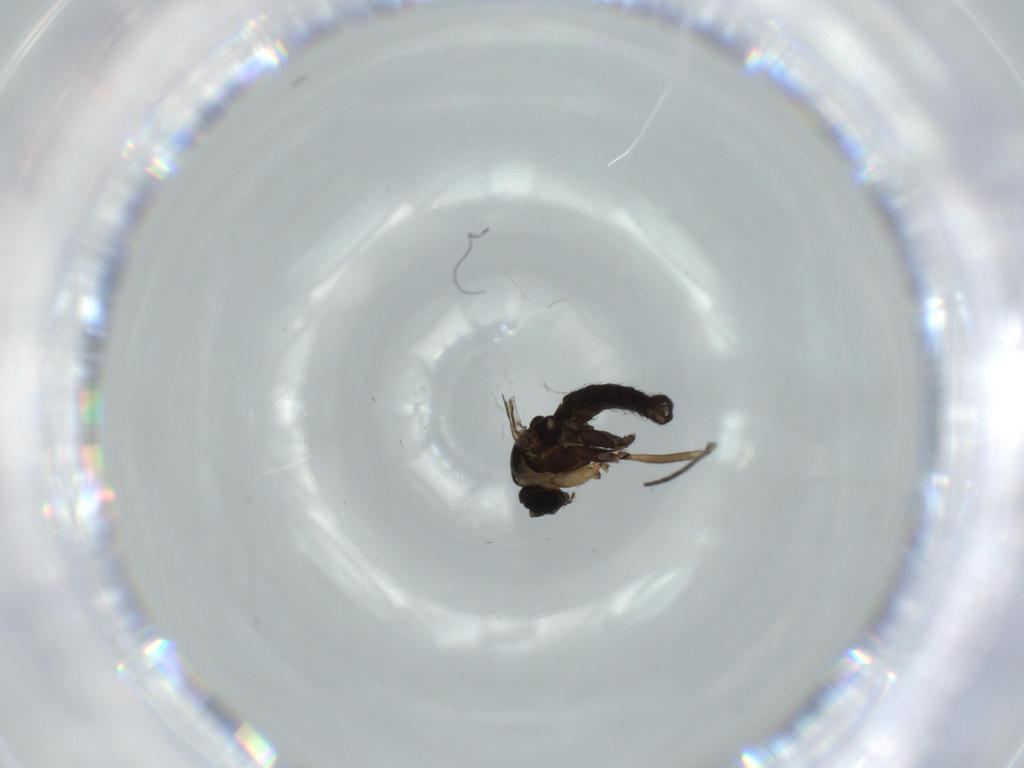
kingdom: Animalia
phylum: Arthropoda
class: Insecta
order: Diptera
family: Sciaridae
